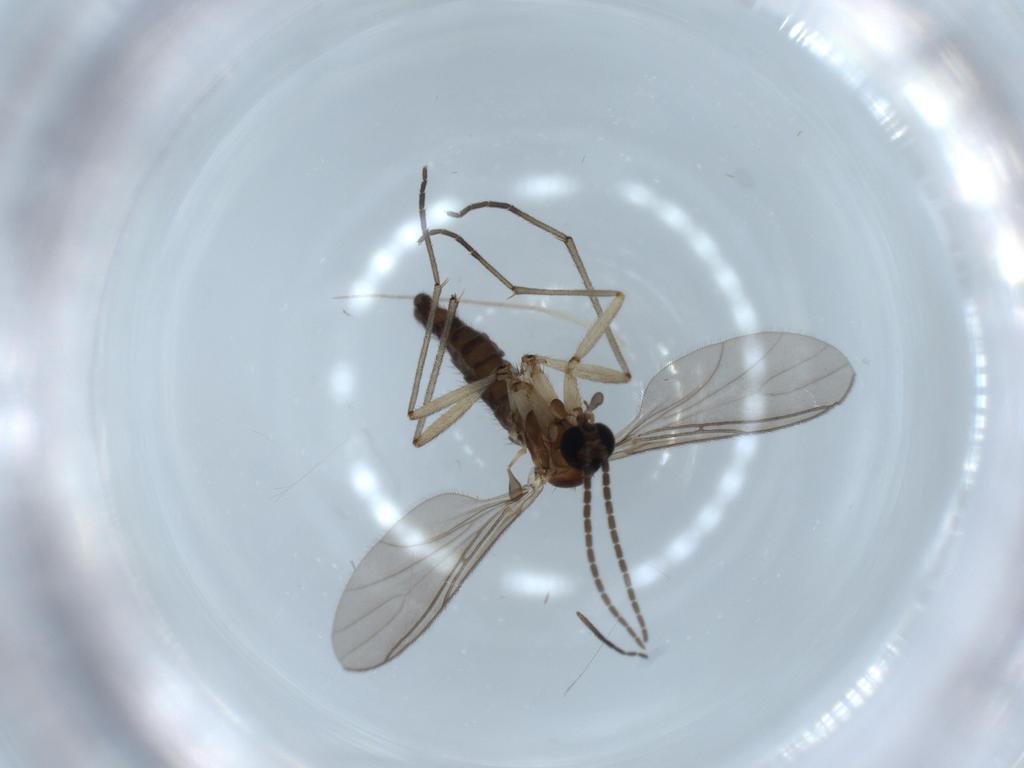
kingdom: Animalia
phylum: Arthropoda
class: Insecta
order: Diptera
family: Sciaridae
